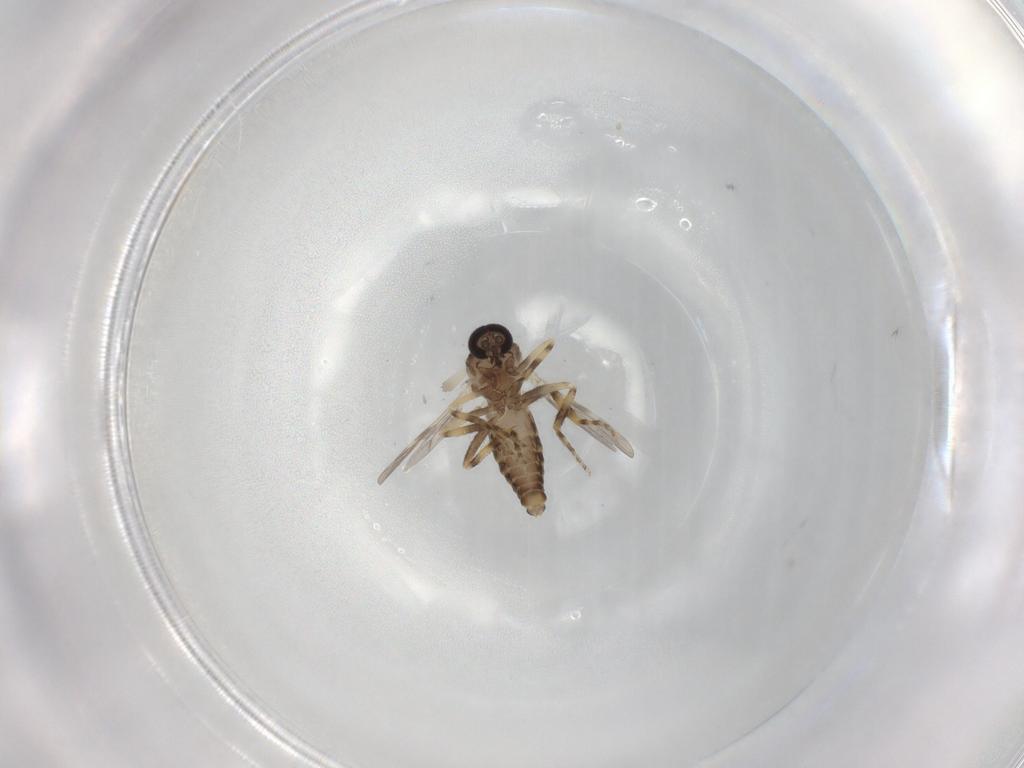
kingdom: Animalia
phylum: Arthropoda
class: Insecta
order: Diptera
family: Ceratopogonidae
